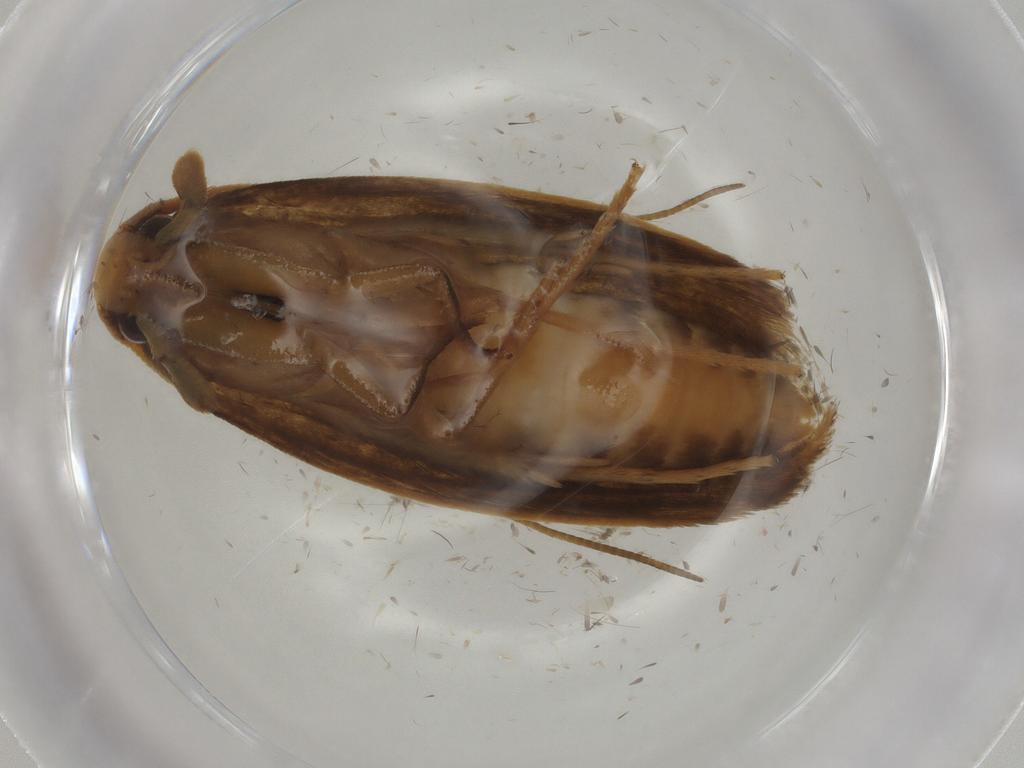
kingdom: Animalia
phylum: Arthropoda
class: Insecta
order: Lepidoptera
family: Tineidae
